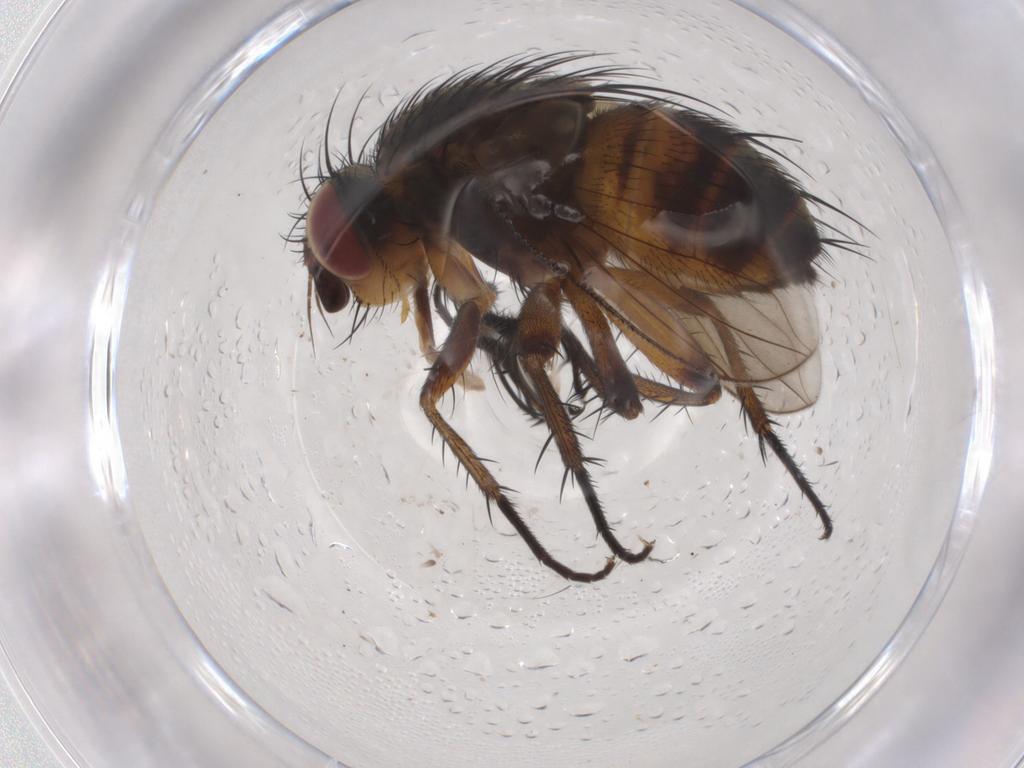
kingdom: Animalia
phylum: Arthropoda
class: Insecta
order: Diptera
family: Tachinidae
